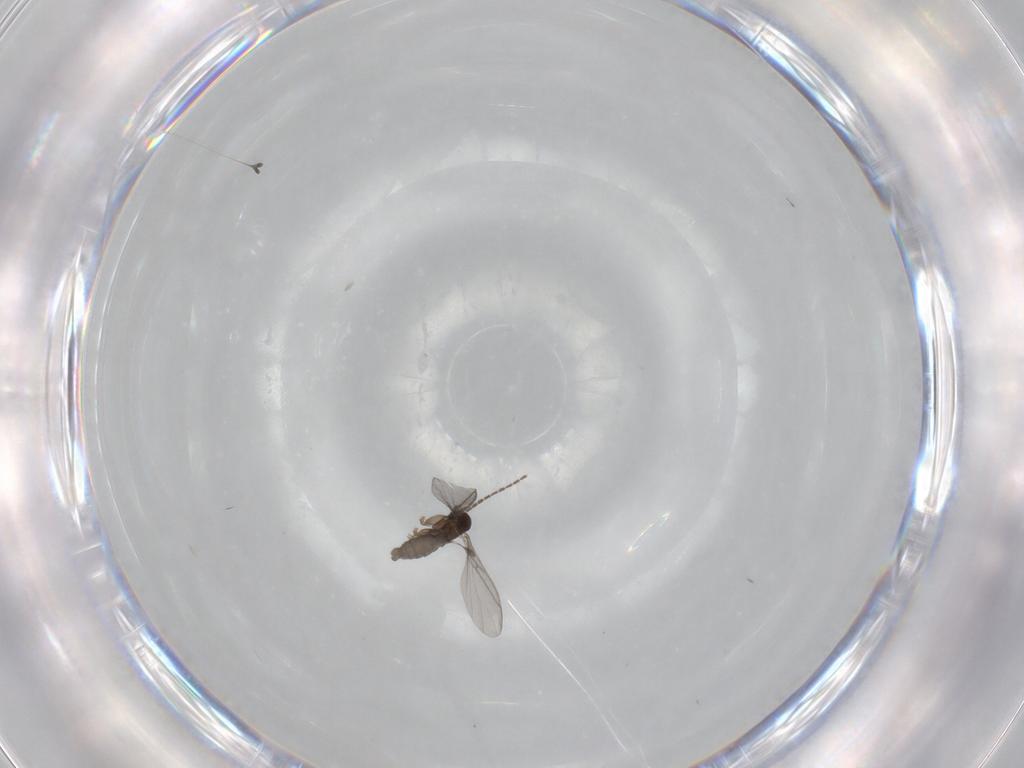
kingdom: Animalia
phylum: Arthropoda
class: Insecta
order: Diptera
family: Sciaridae
